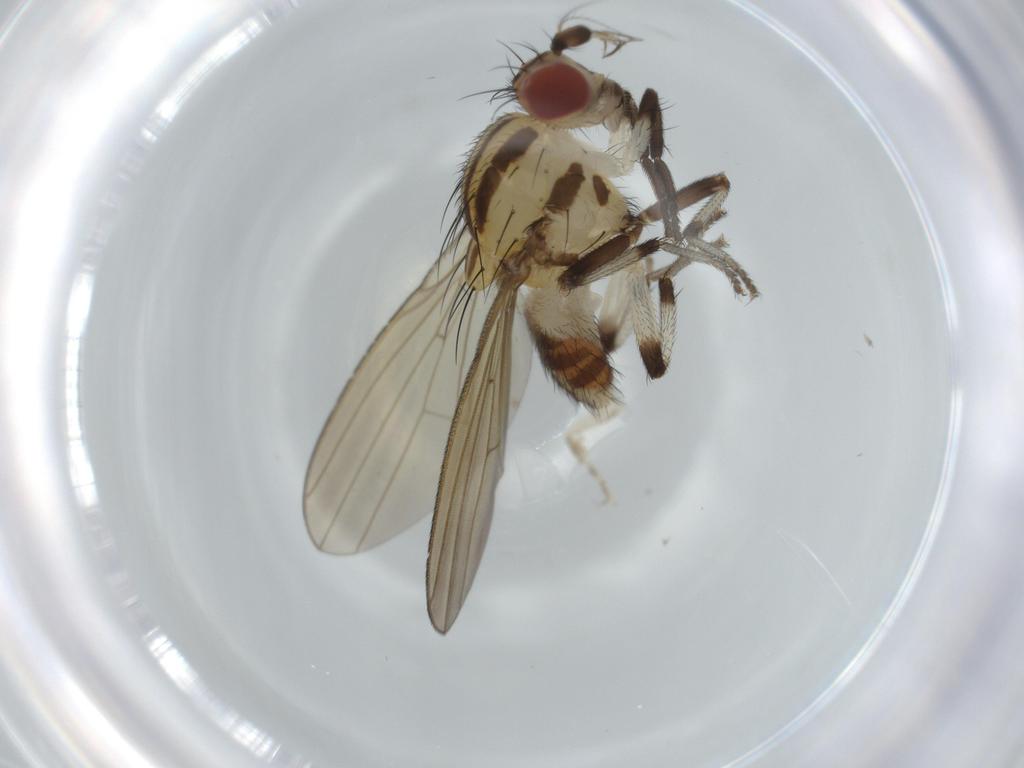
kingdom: Animalia
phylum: Arthropoda
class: Insecta
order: Diptera
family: Lauxaniidae
